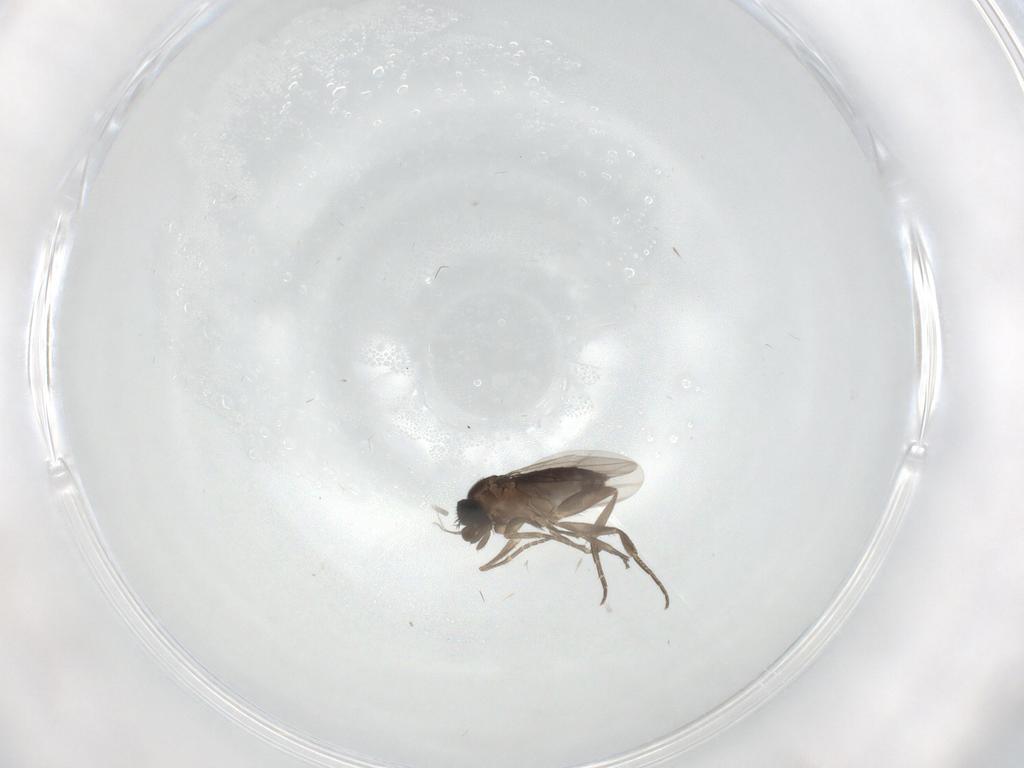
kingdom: Animalia
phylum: Arthropoda
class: Insecta
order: Diptera
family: Phoridae
